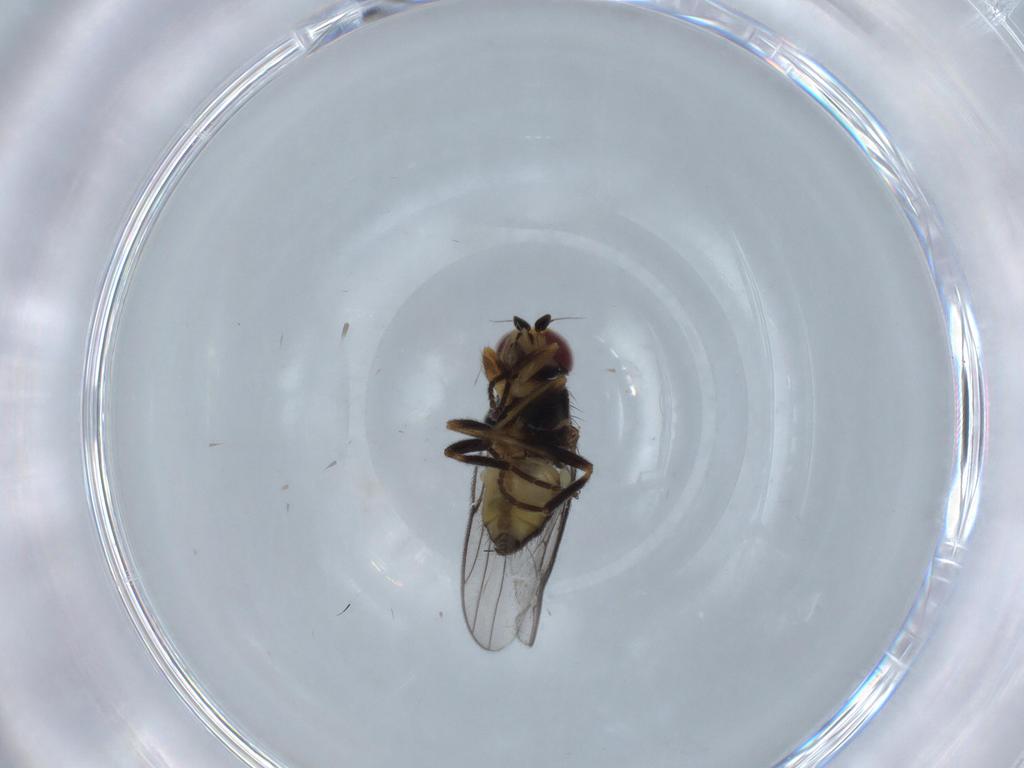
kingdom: Animalia
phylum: Arthropoda
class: Insecta
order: Diptera
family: Chloropidae
